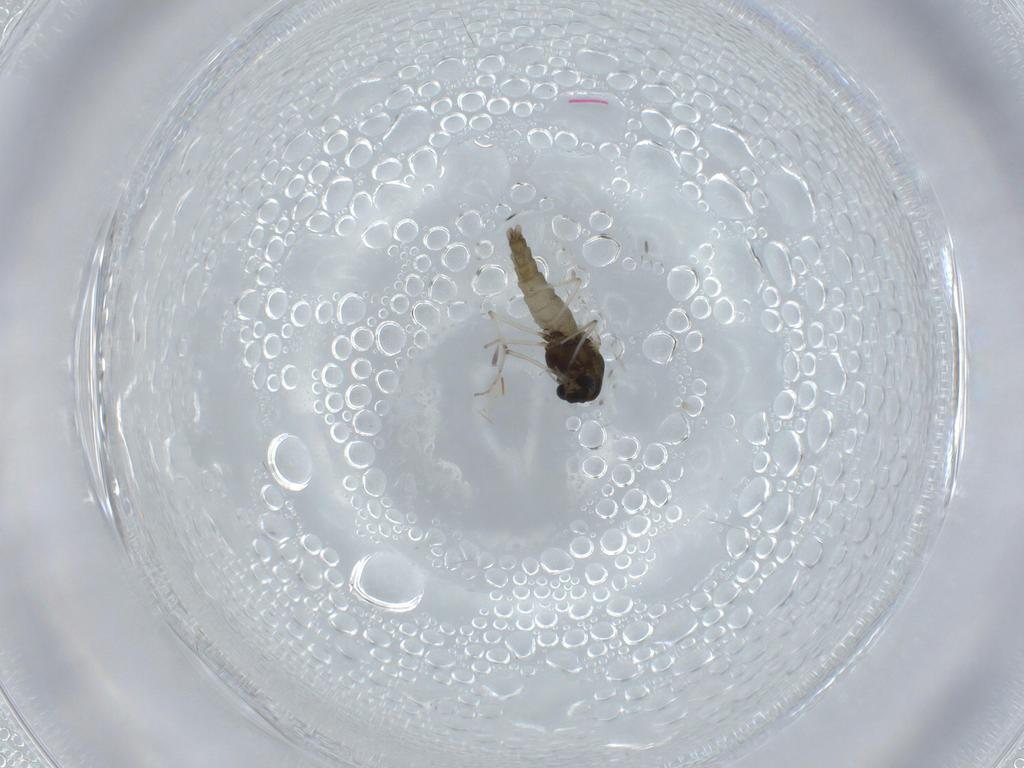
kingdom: Animalia
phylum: Arthropoda
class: Insecta
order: Diptera
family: Chironomidae
